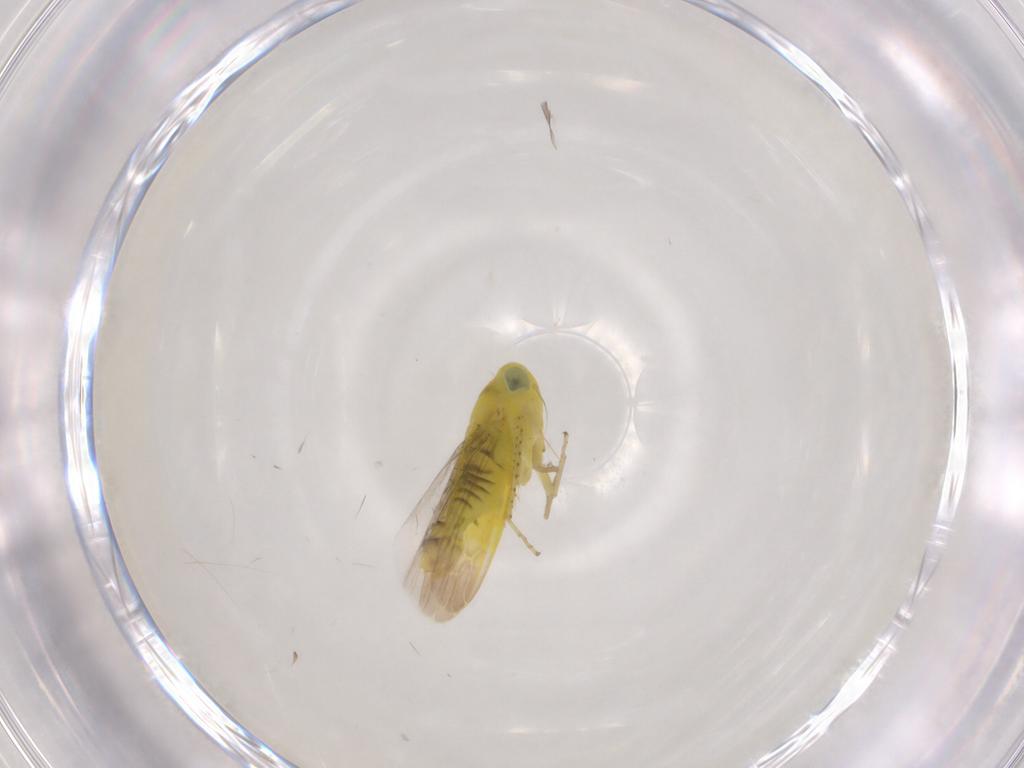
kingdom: Animalia
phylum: Arthropoda
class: Insecta
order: Hemiptera
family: Cicadellidae
